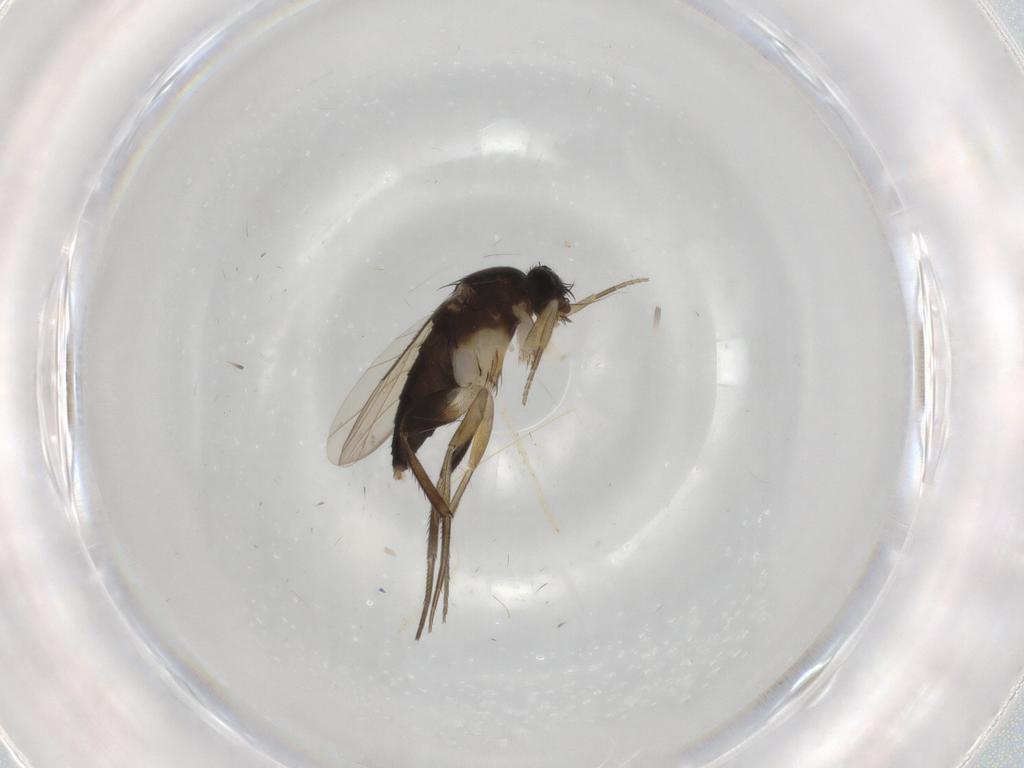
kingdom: Animalia
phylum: Arthropoda
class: Insecta
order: Diptera
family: Phoridae
